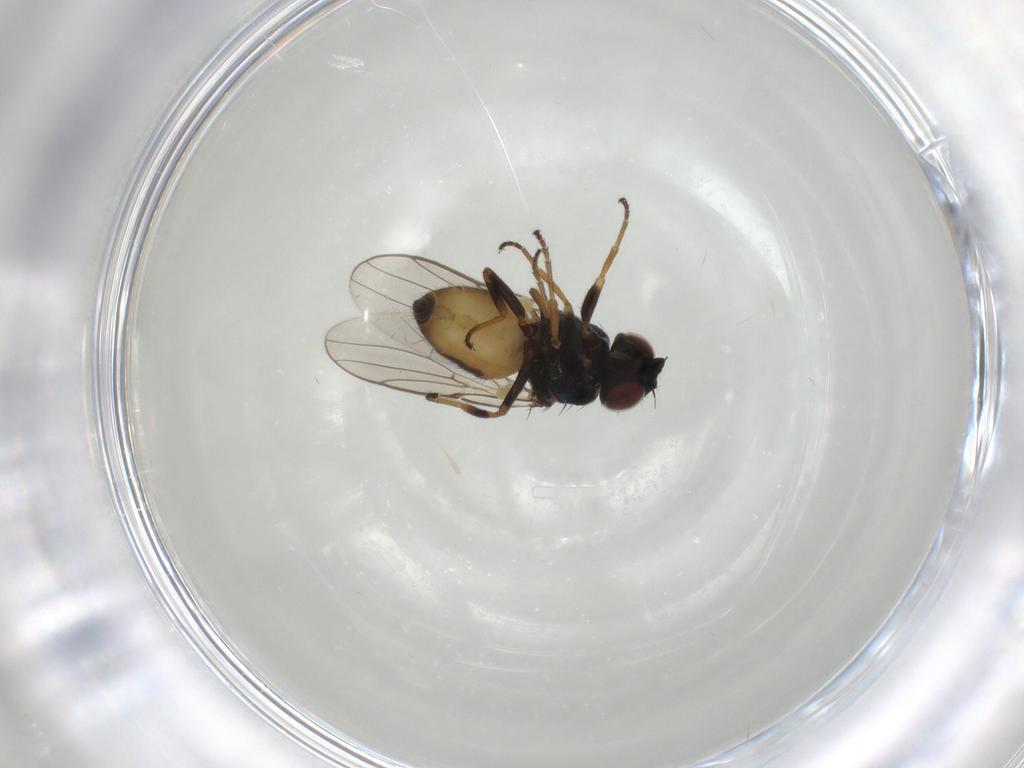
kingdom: Animalia
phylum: Arthropoda
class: Insecta
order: Diptera
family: Chloropidae
